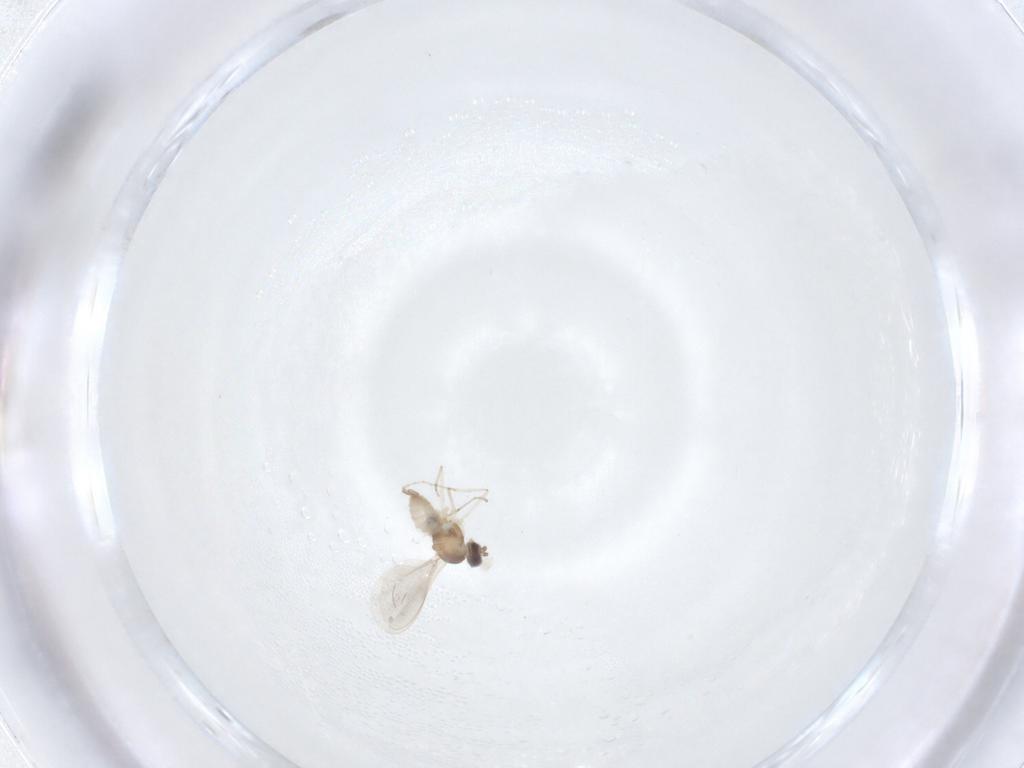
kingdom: Animalia
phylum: Arthropoda
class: Insecta
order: Diptera
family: Cecidomyiidae
